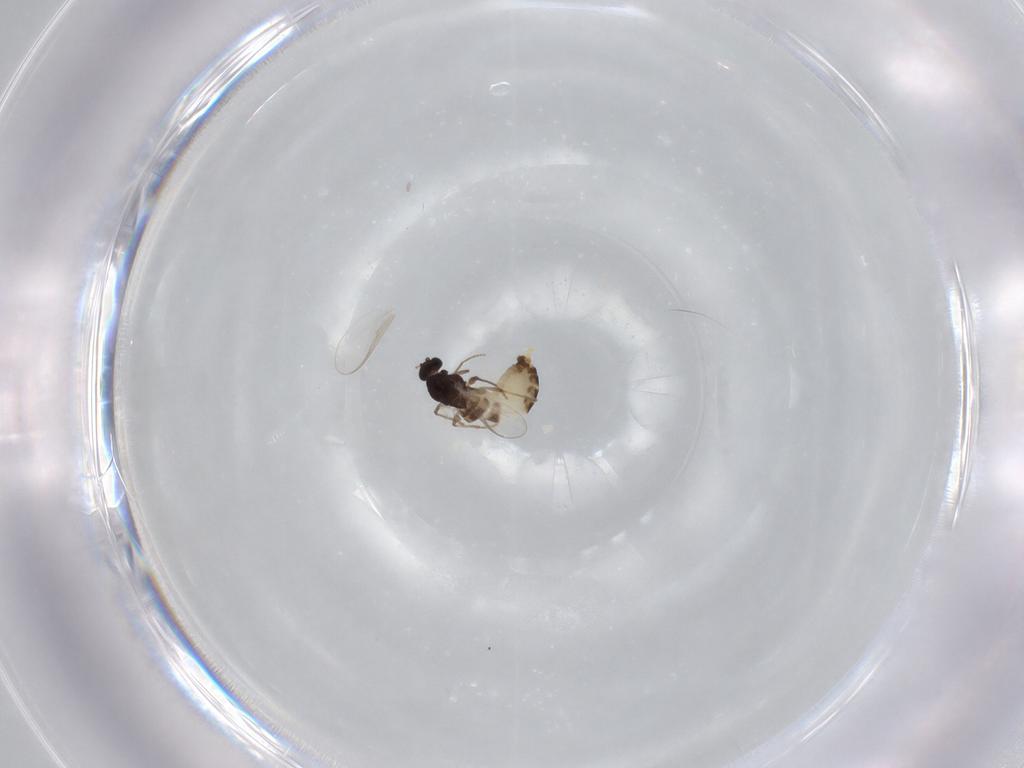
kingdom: Animalia
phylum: Arthropoda
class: Insecta
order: Diptera
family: Chironomidae
